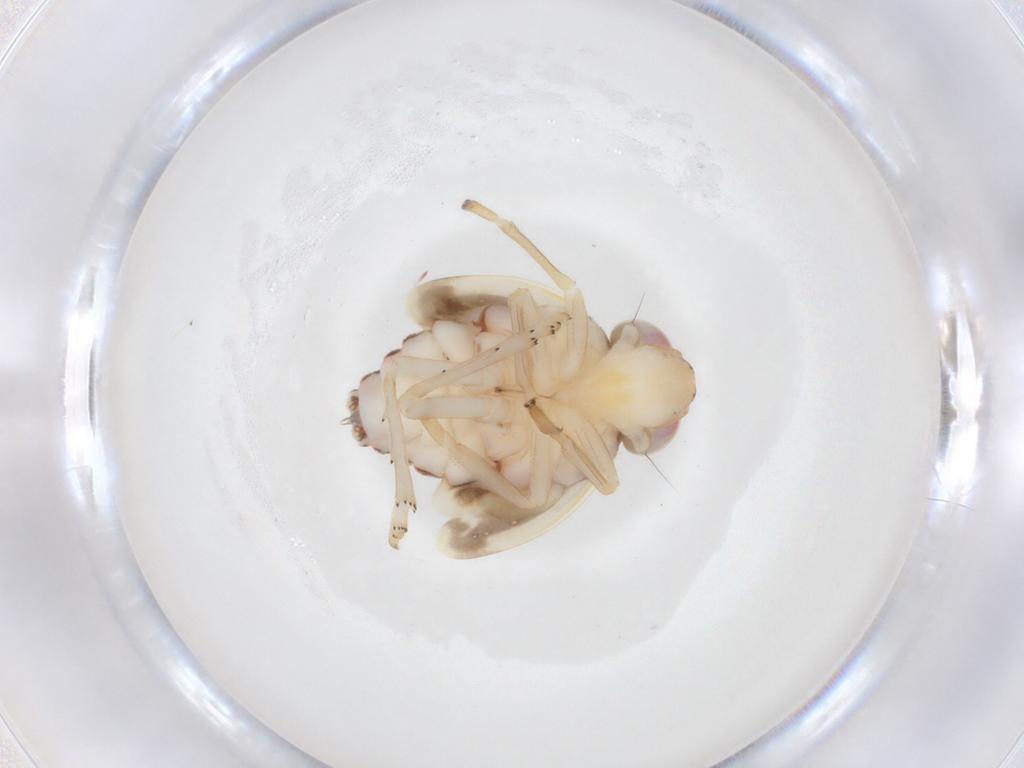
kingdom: Animalia
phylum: Arthropoda
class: Insecta
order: Hemiptera
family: Nogodinidae
